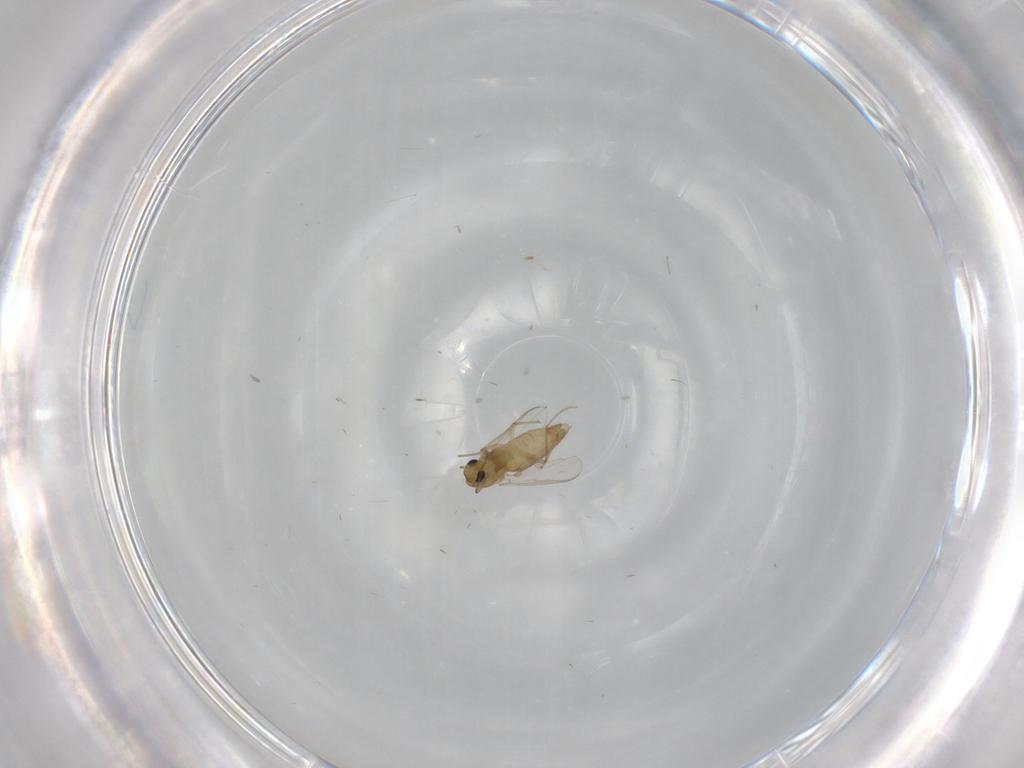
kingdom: Animalia
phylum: Arthropoda
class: Insecta
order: Diptera
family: Chironomidae
